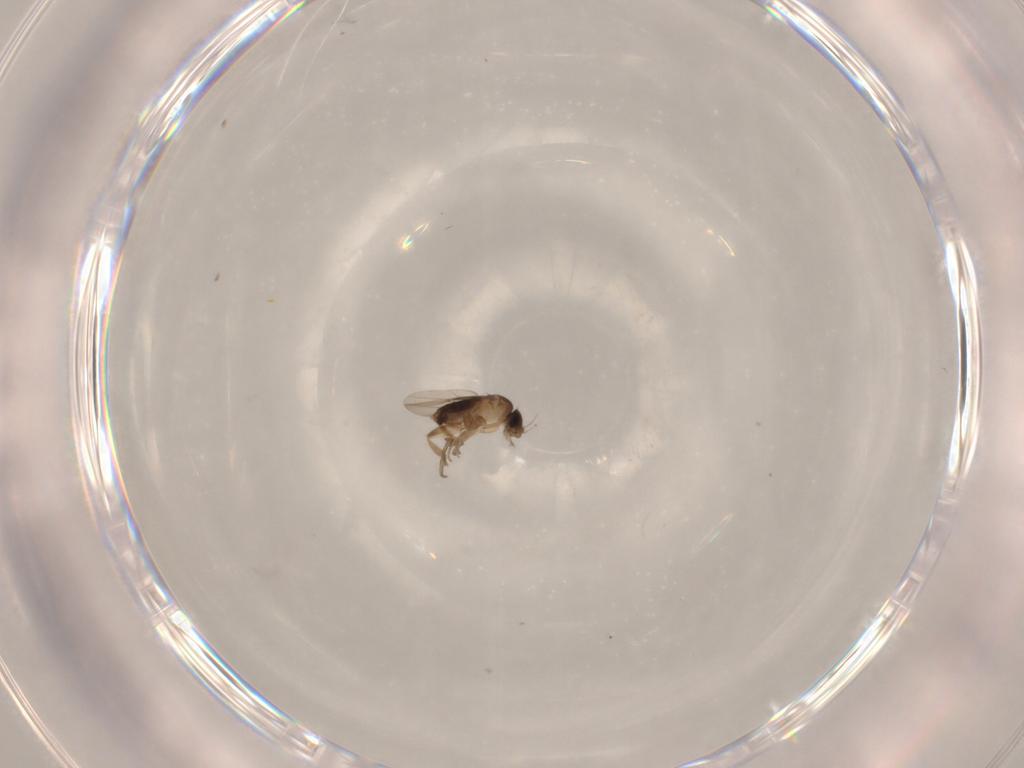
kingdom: Animalia
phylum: Arthropoda
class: Insecta
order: Diptera
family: Phoridae
